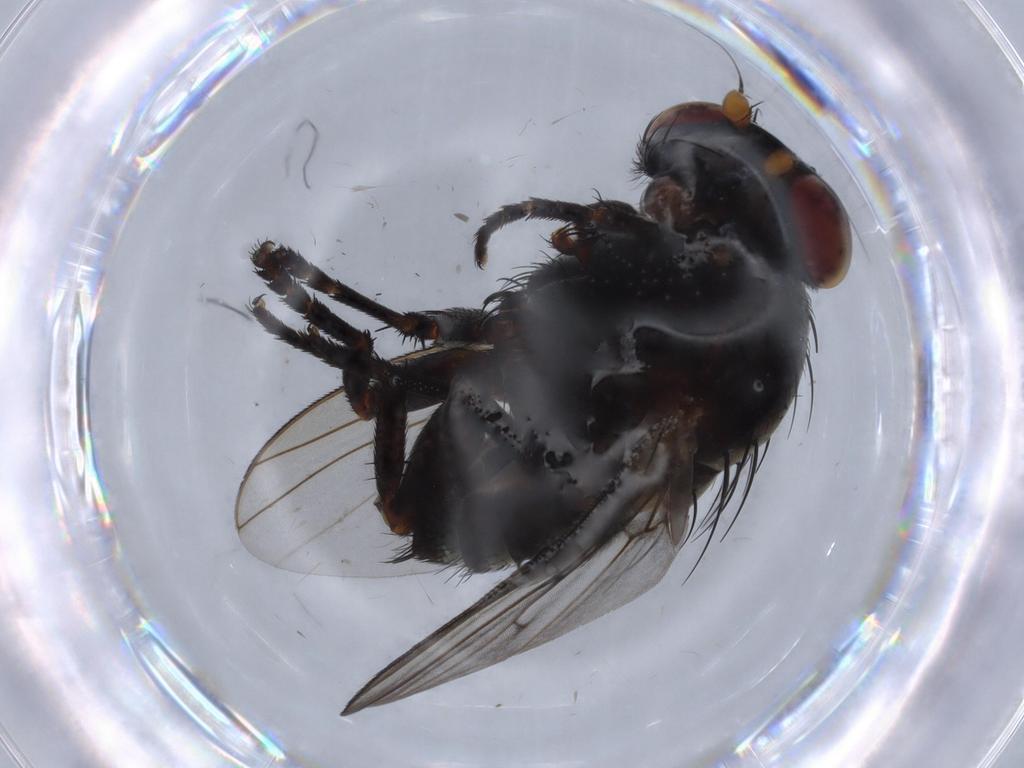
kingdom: Animalia
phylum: Arthropoda
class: Insecta
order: Diptera
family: Odiniidae
